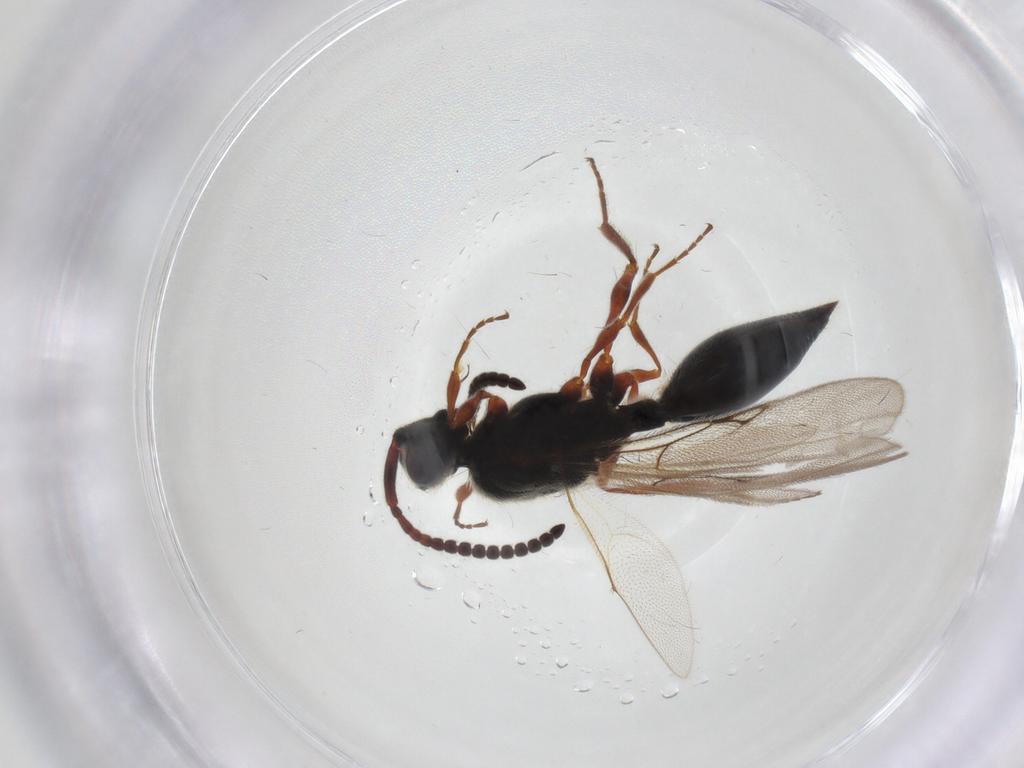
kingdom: Animalia
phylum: Arthropoda
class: Insecta
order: Hymenoptera
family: Diapriidae
